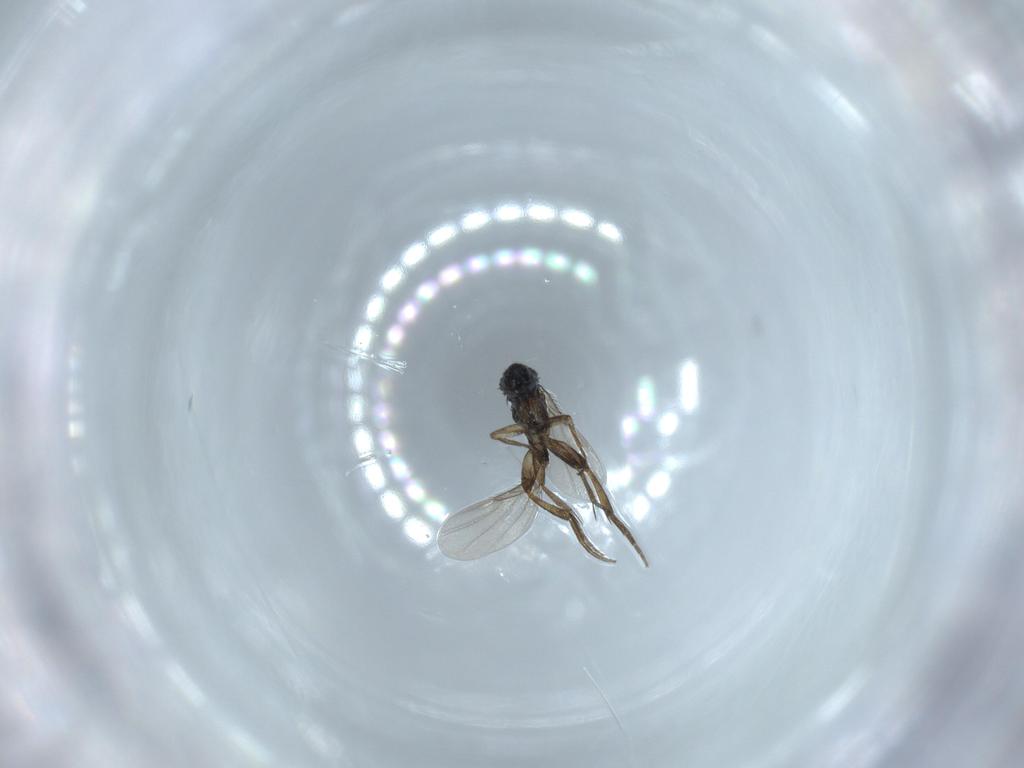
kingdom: Animalia
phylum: Arthropoda
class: Insecta
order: Diptera
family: Phoridae
